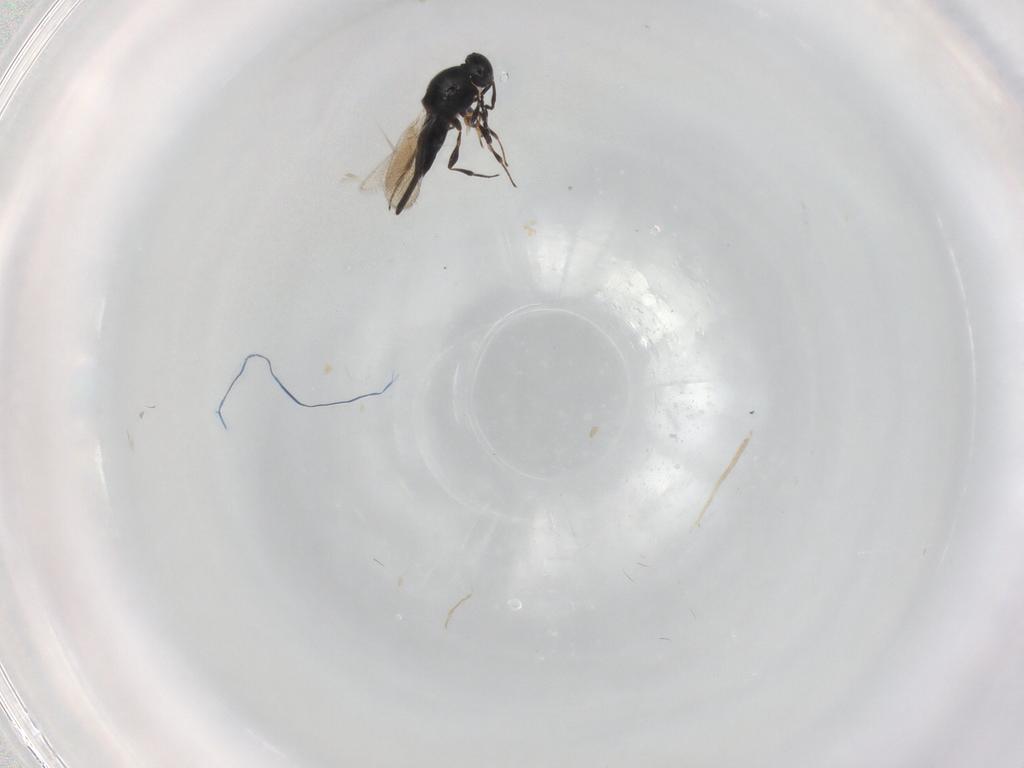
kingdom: Animalia
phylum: Arthropoda
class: Insecta
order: Hymenoptera
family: Platygastridae
